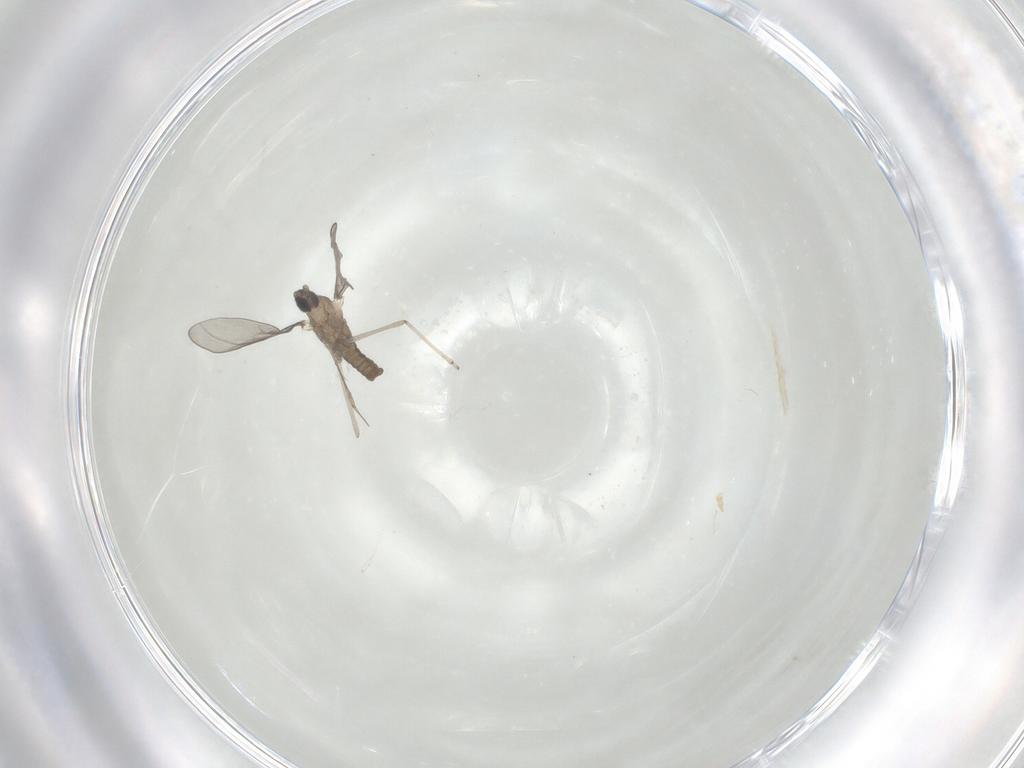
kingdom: Animalia
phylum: Arthropoda
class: Insecta
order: Diptera
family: Cecidomyiidae
